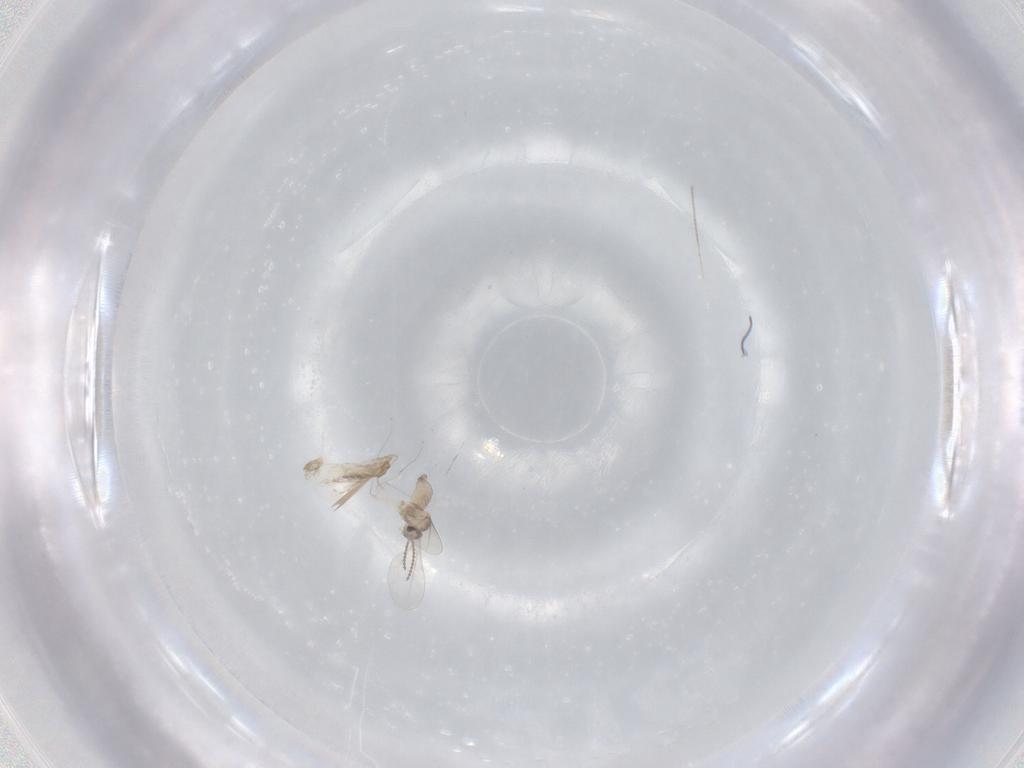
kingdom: Animalia
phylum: Arthropoda
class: Insecta
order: Diptera
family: Psychodidae
